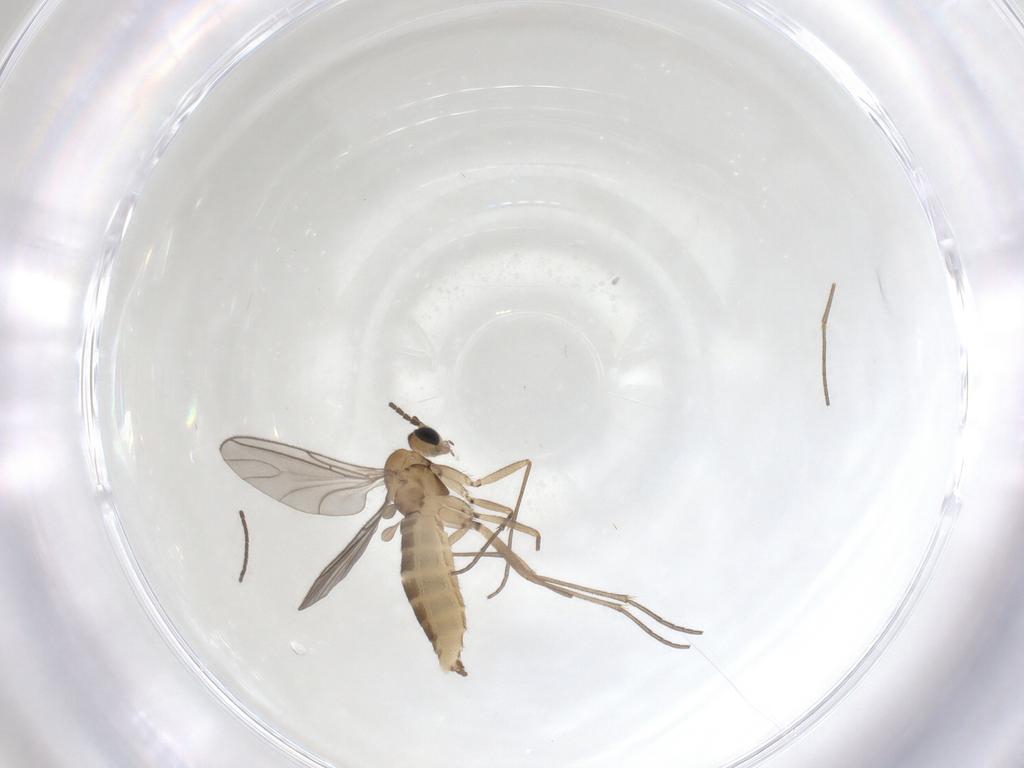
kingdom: Animalia
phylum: Arthropoda
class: Insecta
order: Diptera
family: Sciaridae
